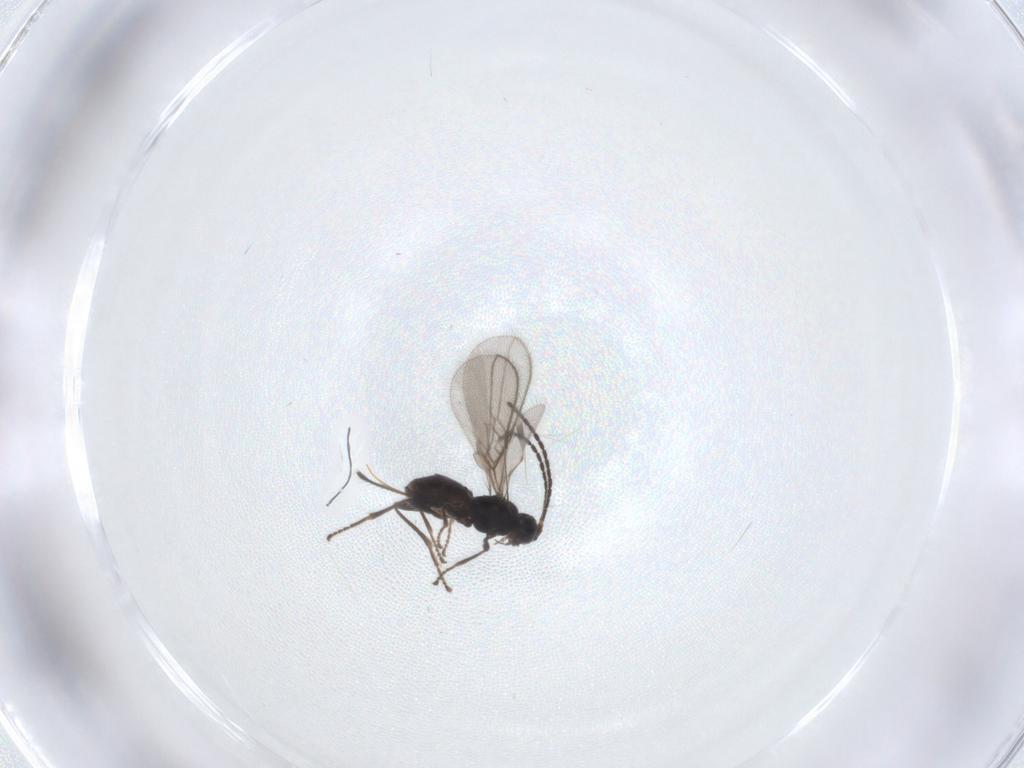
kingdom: Animalia
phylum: Arthropoda
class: Insecta
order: Hymenoptera
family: Braconidae
